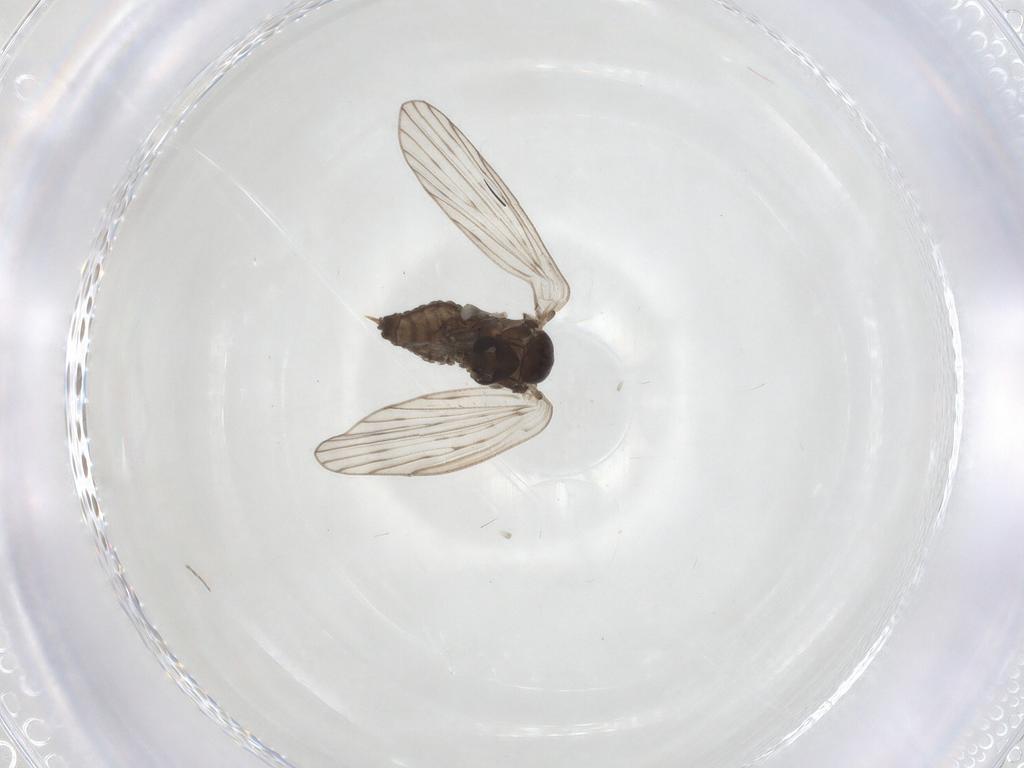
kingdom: Animalia
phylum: Arthropoda
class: Insecta
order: Diptera
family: Psychodidae
